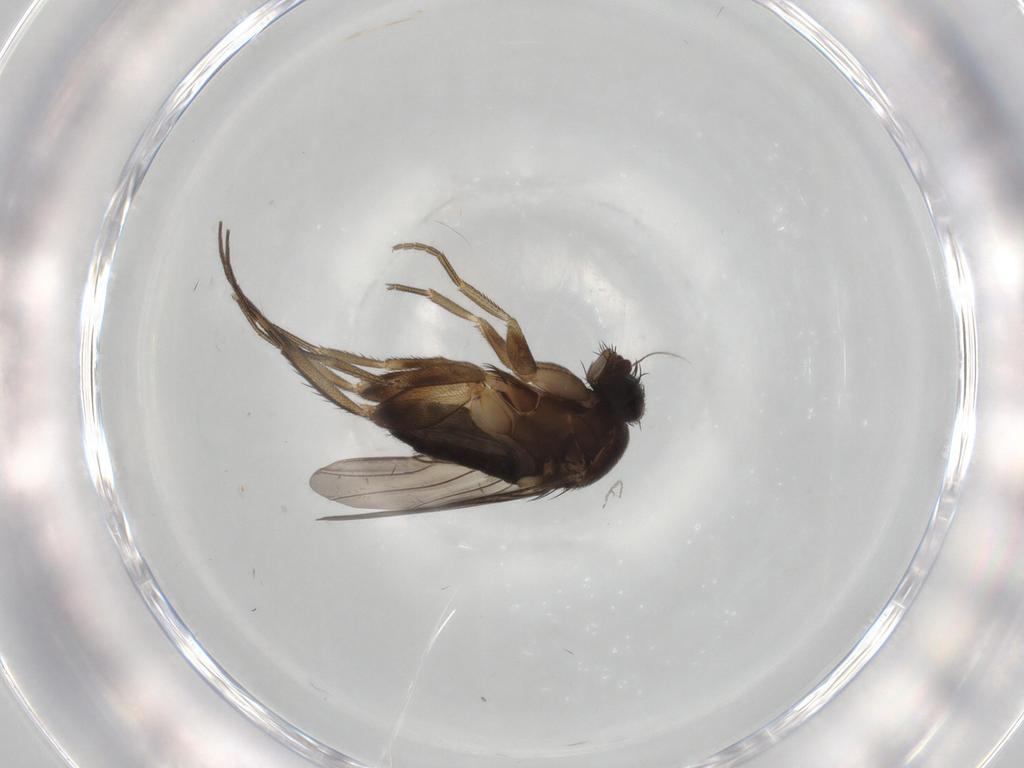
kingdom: Animalia
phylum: Arthropoda
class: Insecta
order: Diptera
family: Phoridae
